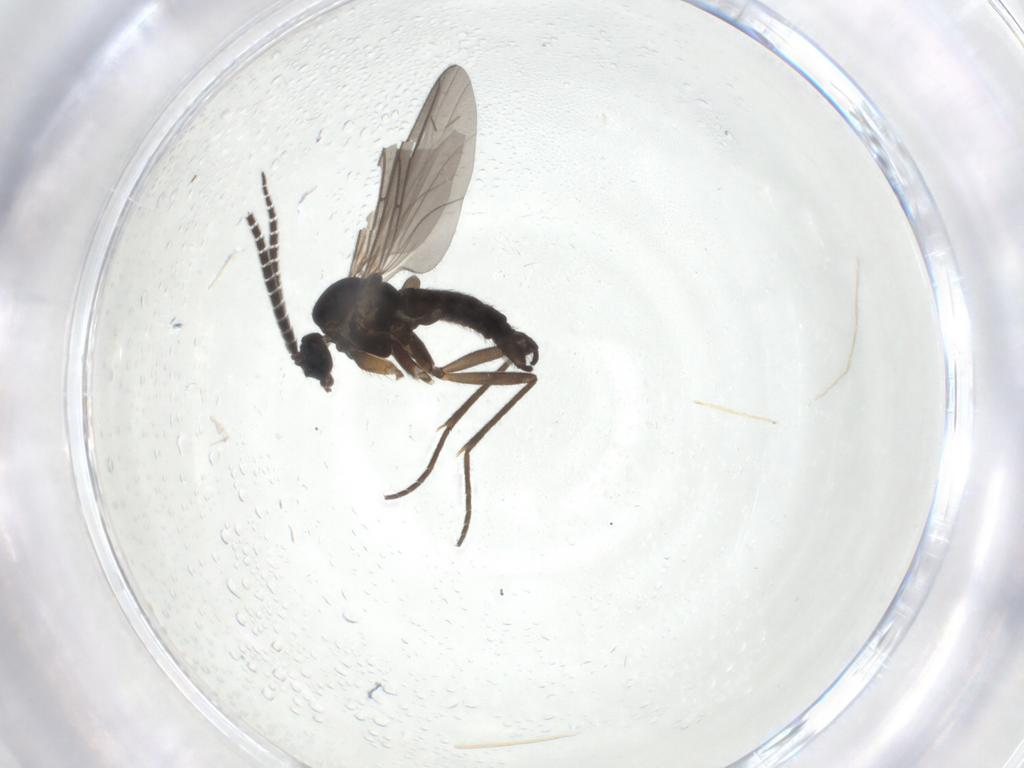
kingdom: Animalia
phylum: Arthropoda
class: Insecta
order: Diptera
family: Sciaridae
